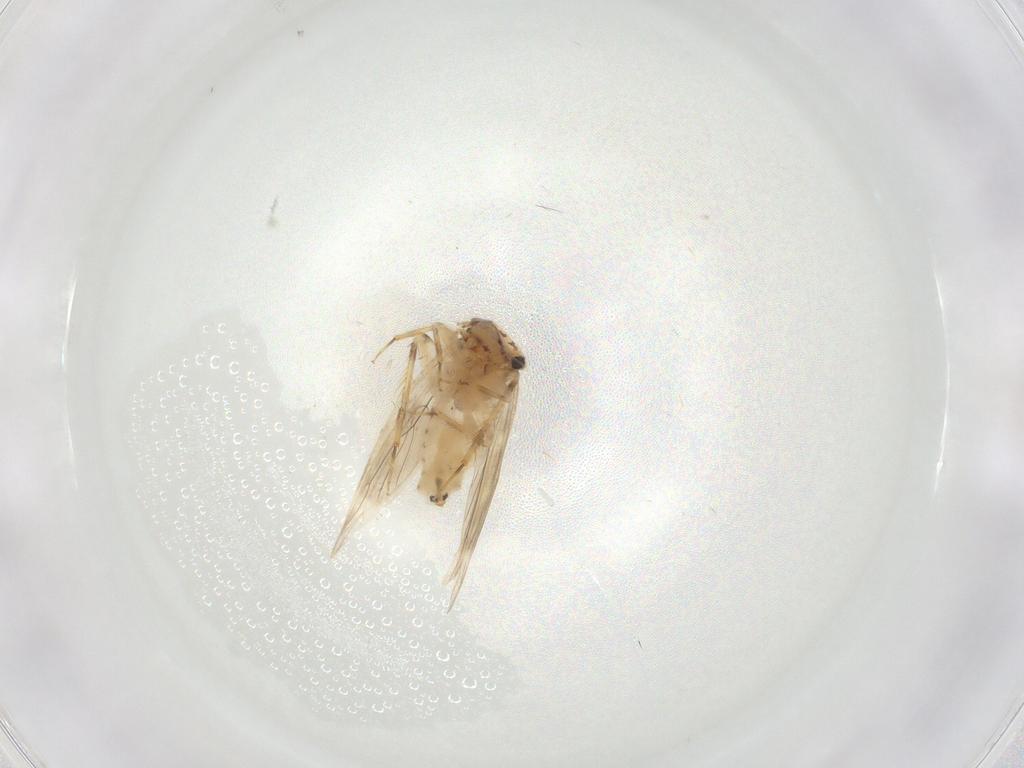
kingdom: Animalia
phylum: Arthropoda
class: Insecta
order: Psocodea
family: Lepidopsocidae
